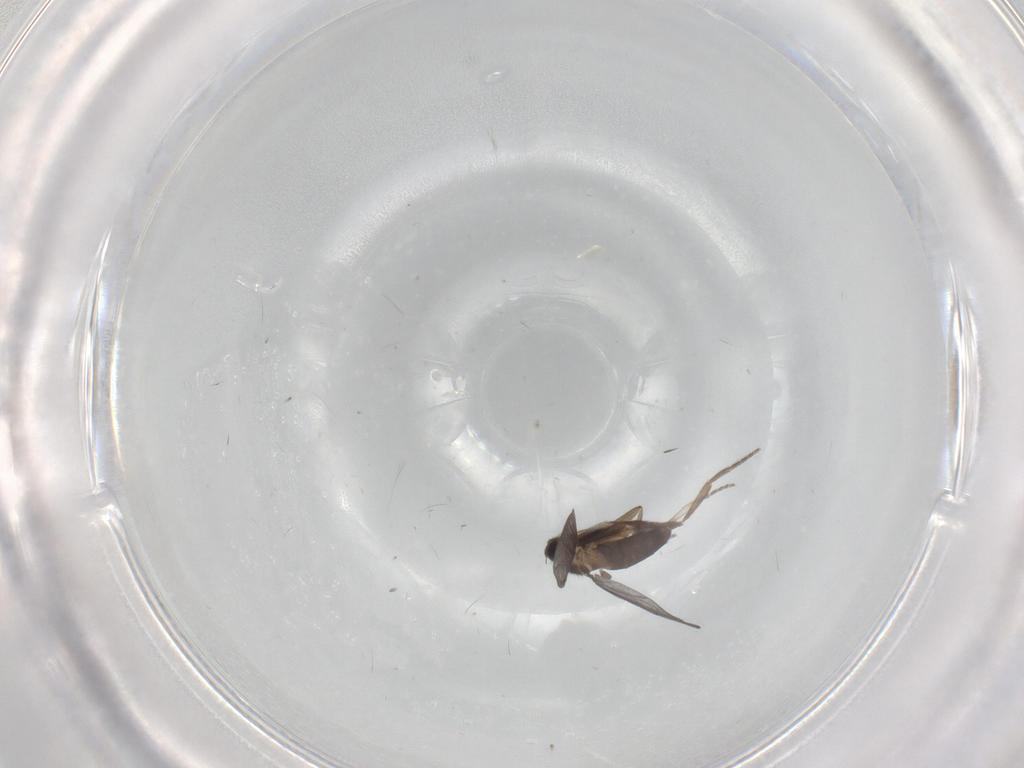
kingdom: Animalia
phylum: Arthropoda
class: Insecta
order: Diptera
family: Phoridae
